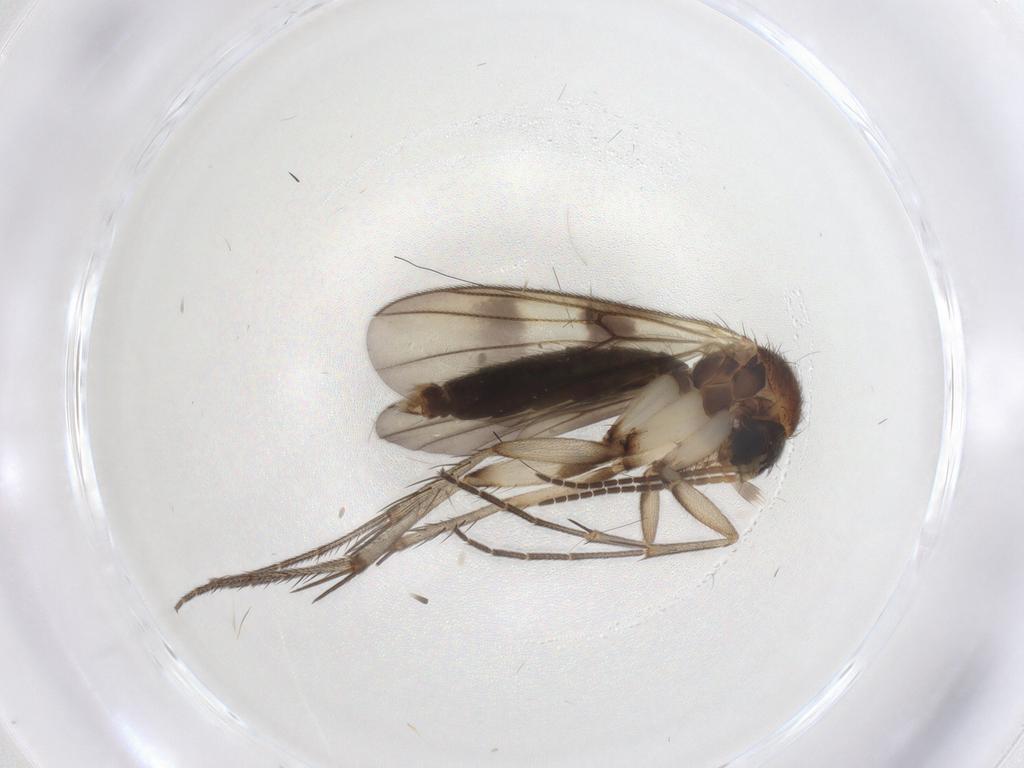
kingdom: Animalia
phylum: Arthropoda
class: Insecta
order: Diptera
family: Mycetophilidae
